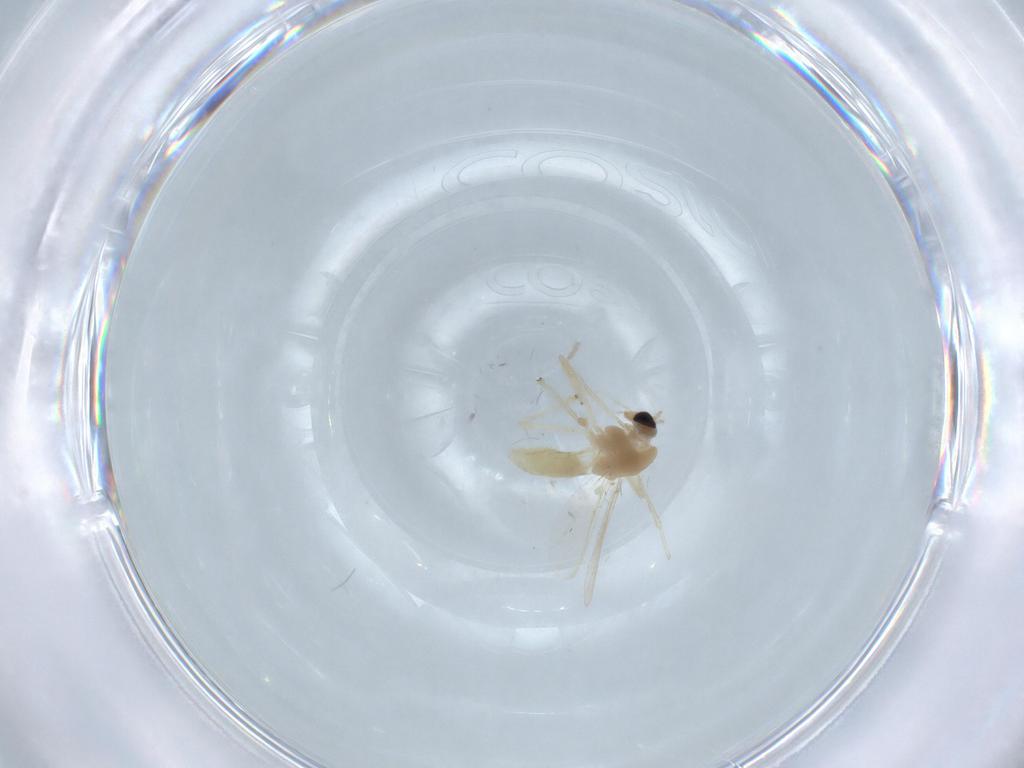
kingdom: Animalia
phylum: Arthropoda
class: Insecta
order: Diptera
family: Chironomidae
